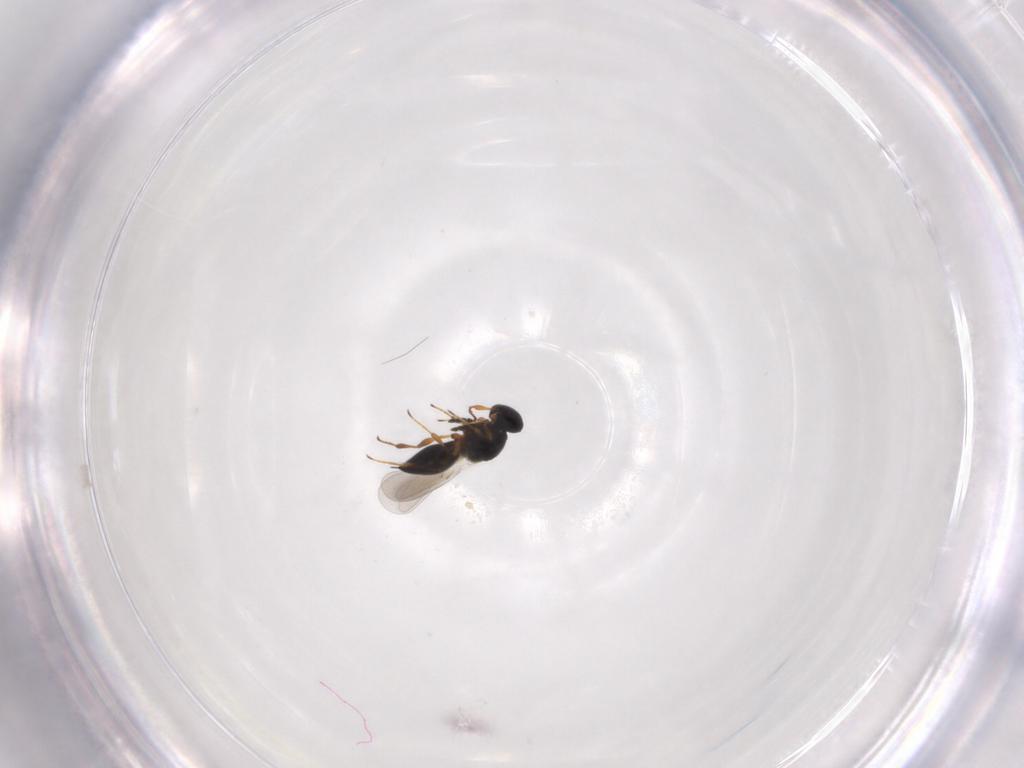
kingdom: Animalia
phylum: Arthropoda
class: Insecta
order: Hymenoptera
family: Platygastridae
